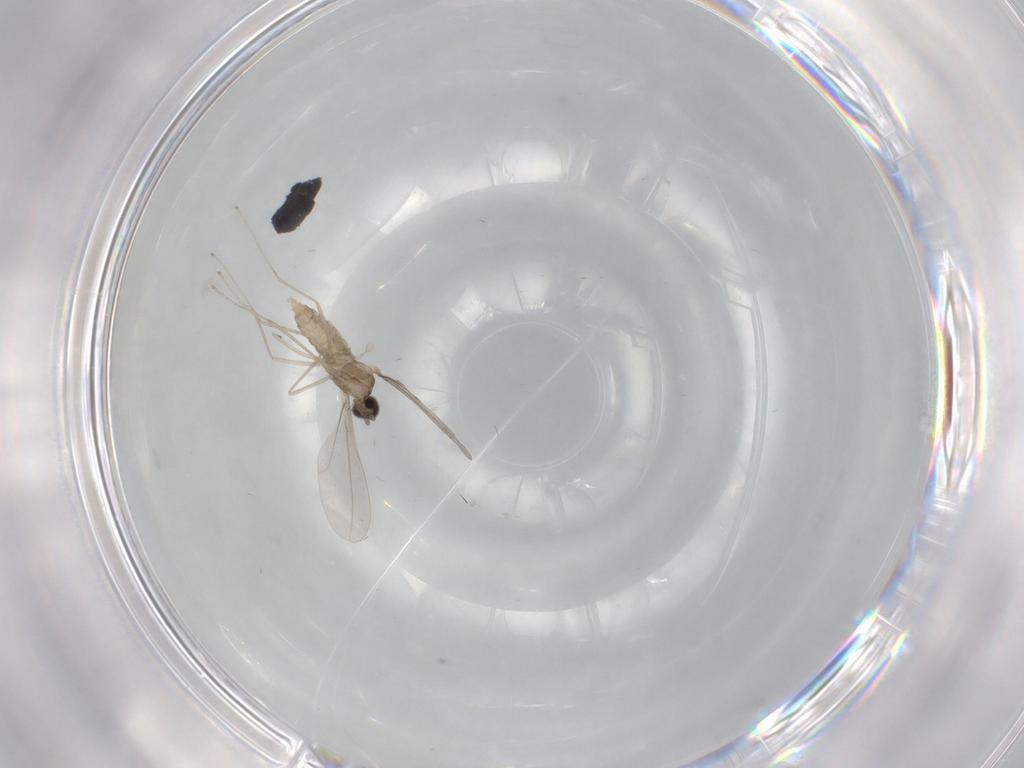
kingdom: Animalia
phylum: Arthropoda
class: Insecta
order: Diptera
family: Cecidomyiidae
